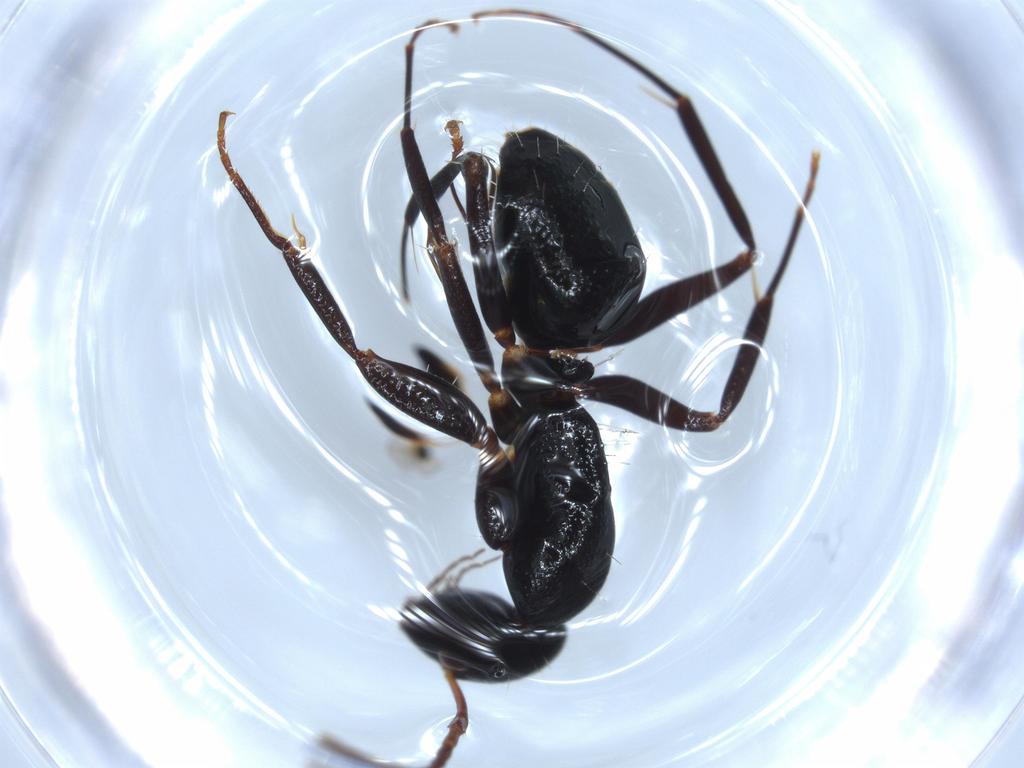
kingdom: Animalia
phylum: Arthropoda
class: Insecta
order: Hymenoptera
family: Formicidae
